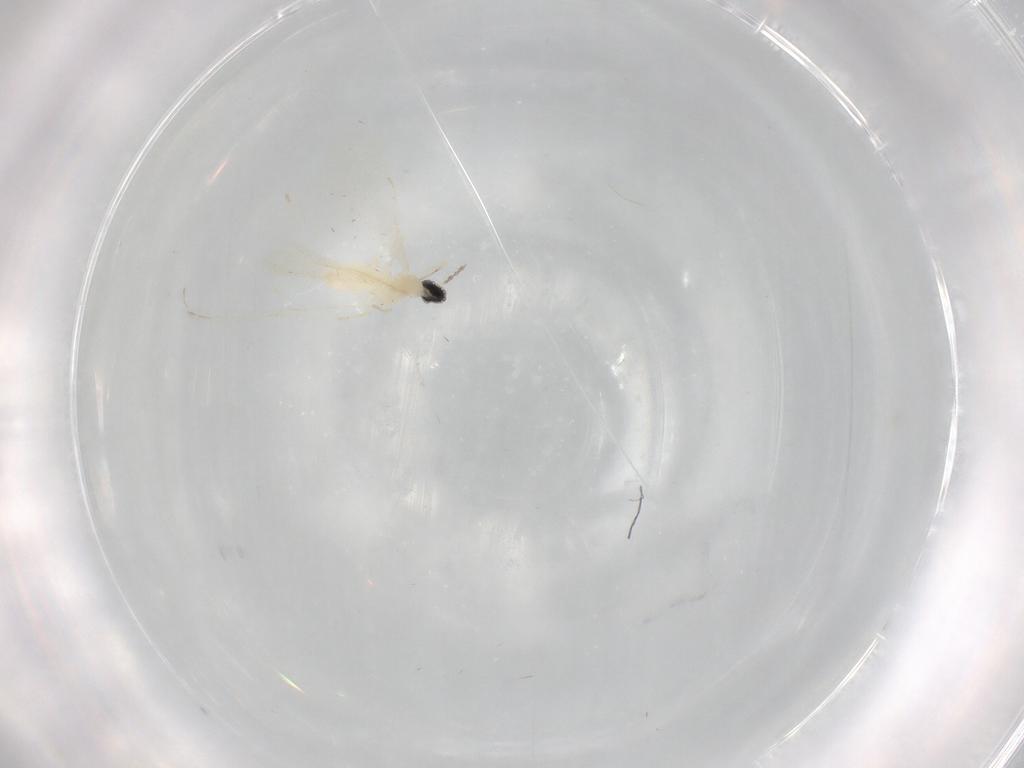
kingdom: Animalia
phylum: Arthropoda
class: Insecta
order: Diptera
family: Cecidomyiidae
